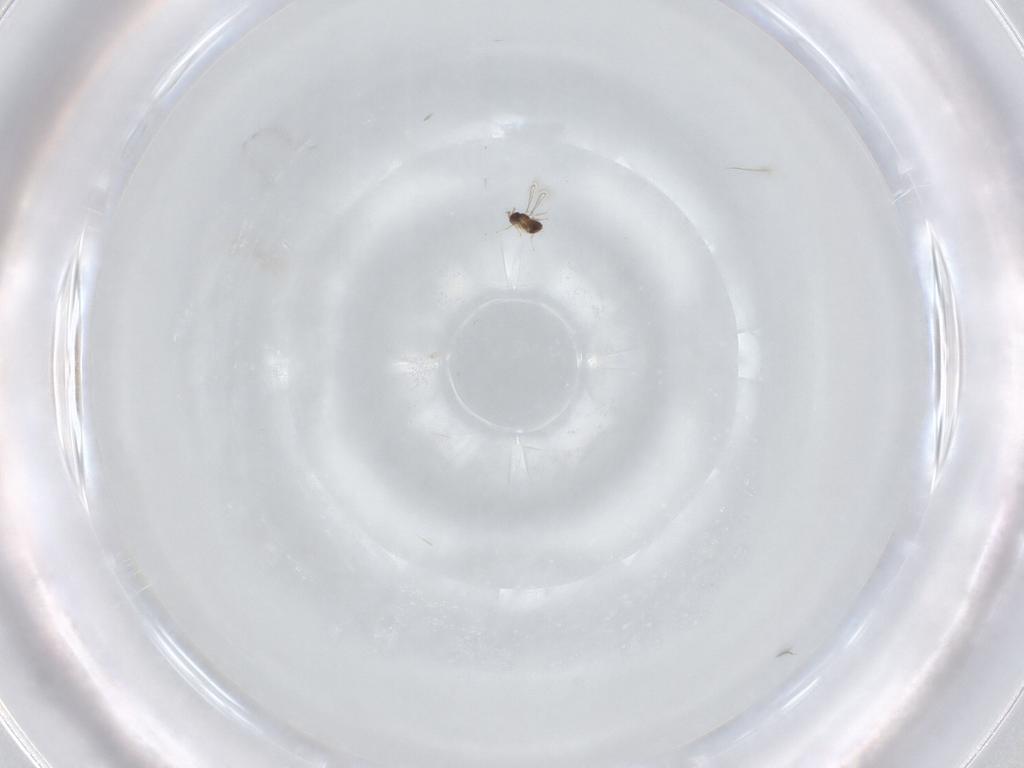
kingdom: Animalia
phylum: Arthropoda
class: Insecta
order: Hymenoptera
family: Mymaridae
